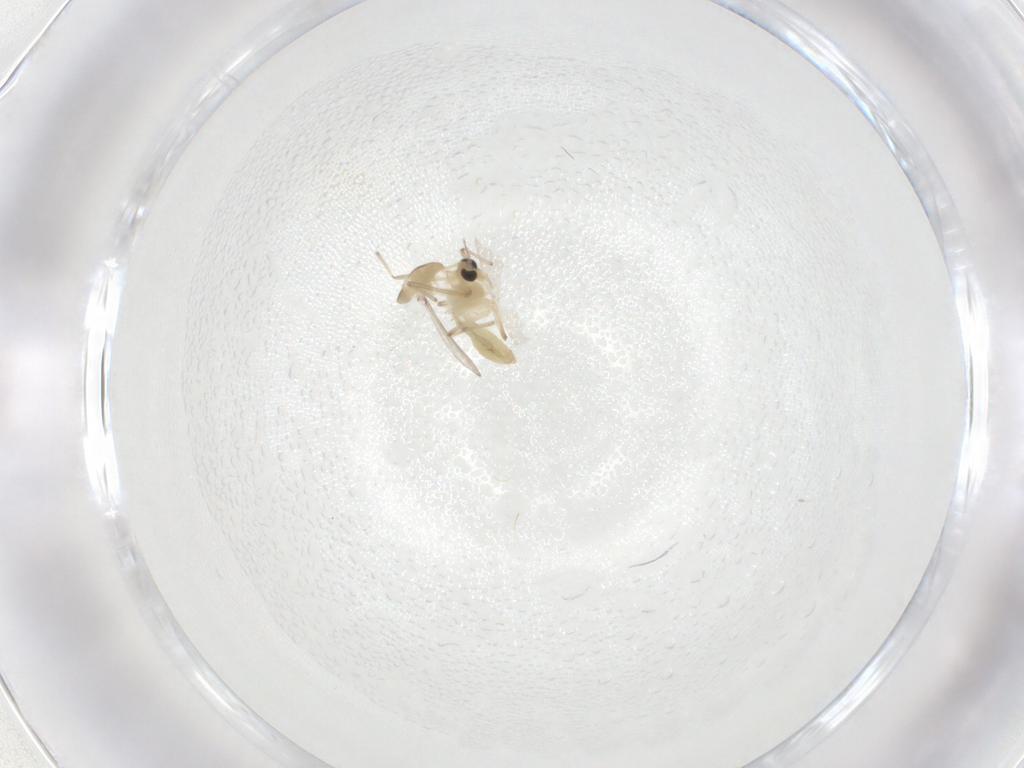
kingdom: Animalia
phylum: Arthropoda
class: Insecta
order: Diptera
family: Chironomidae
